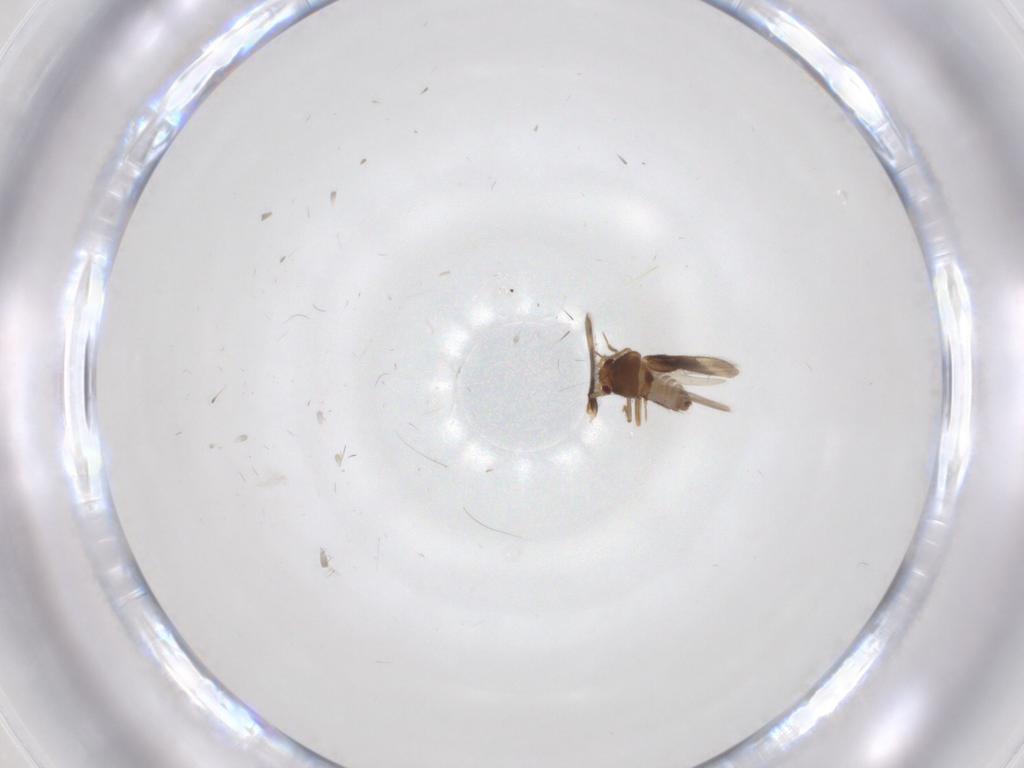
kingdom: Animalia
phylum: Arthropoda
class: Insecta
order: Hemiptera
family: Schizopteridae
